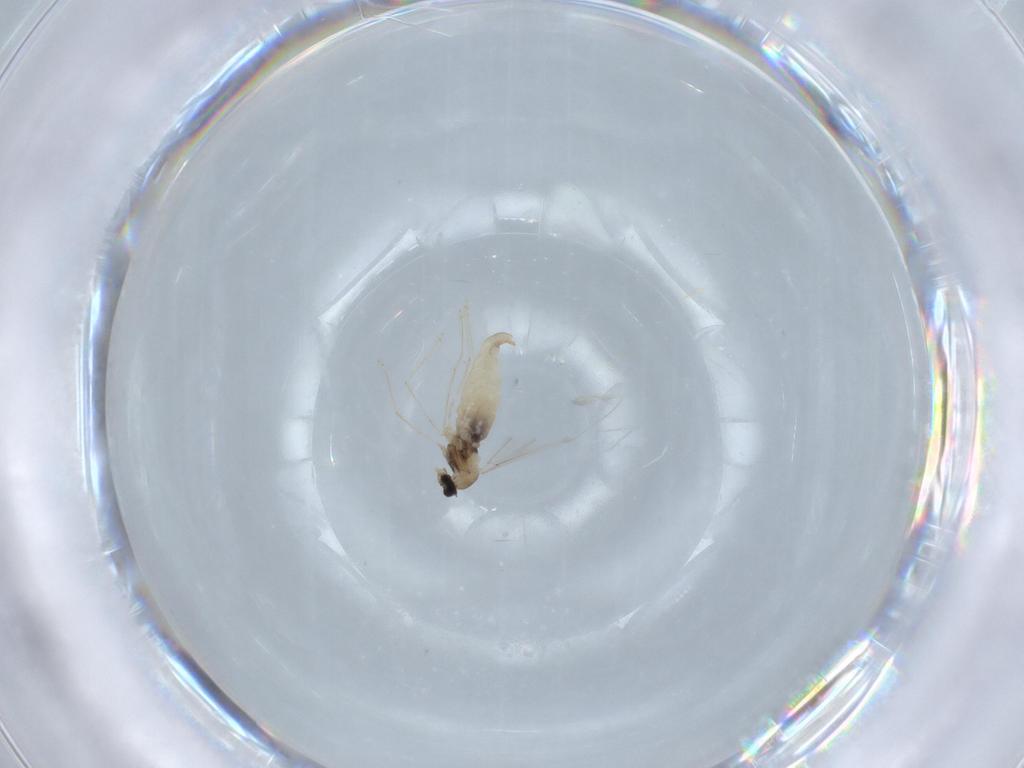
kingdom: Animalia
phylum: Arthropoda
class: Insecta
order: Diptera
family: Cecidomyiidae
